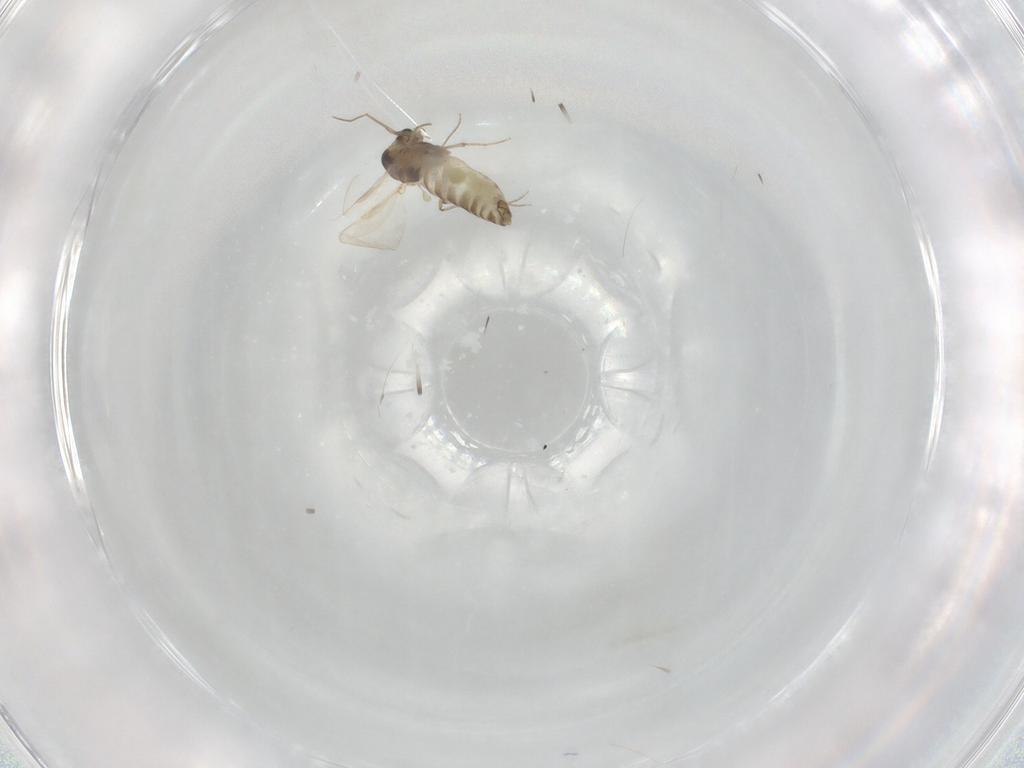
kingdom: Animalia
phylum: Arthropoda
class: Insecta
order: Diptera
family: Chironomidae
